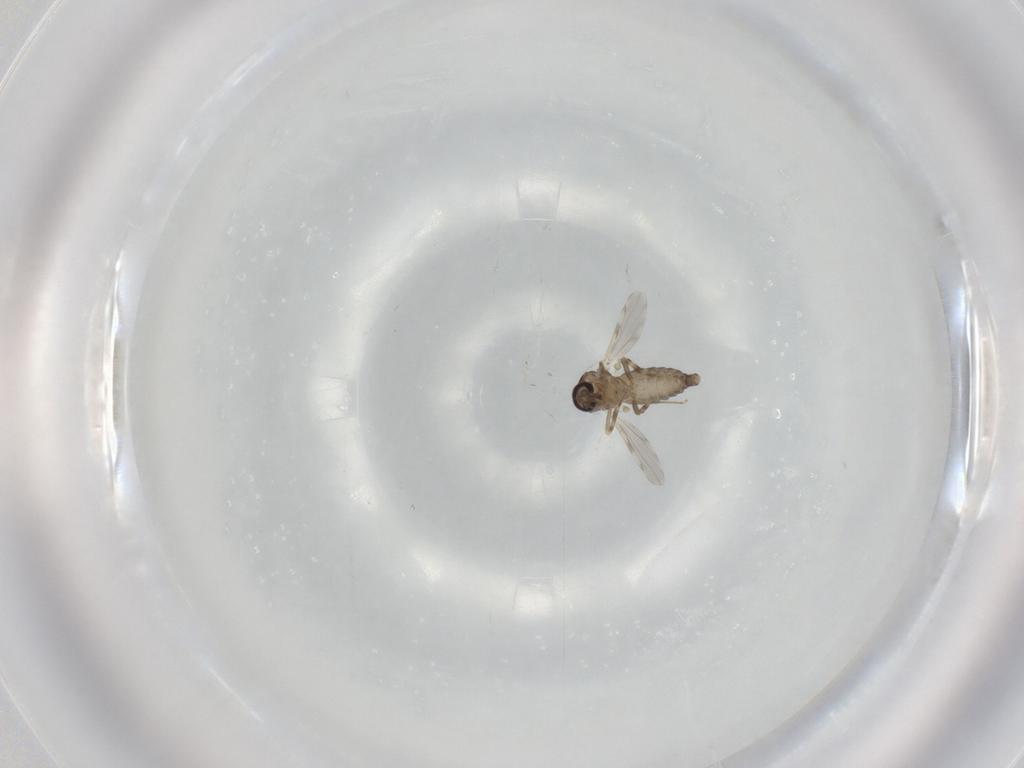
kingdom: Animalia
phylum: Arthropoda
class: Insecta
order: Diptera
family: Ceratopogonidae
